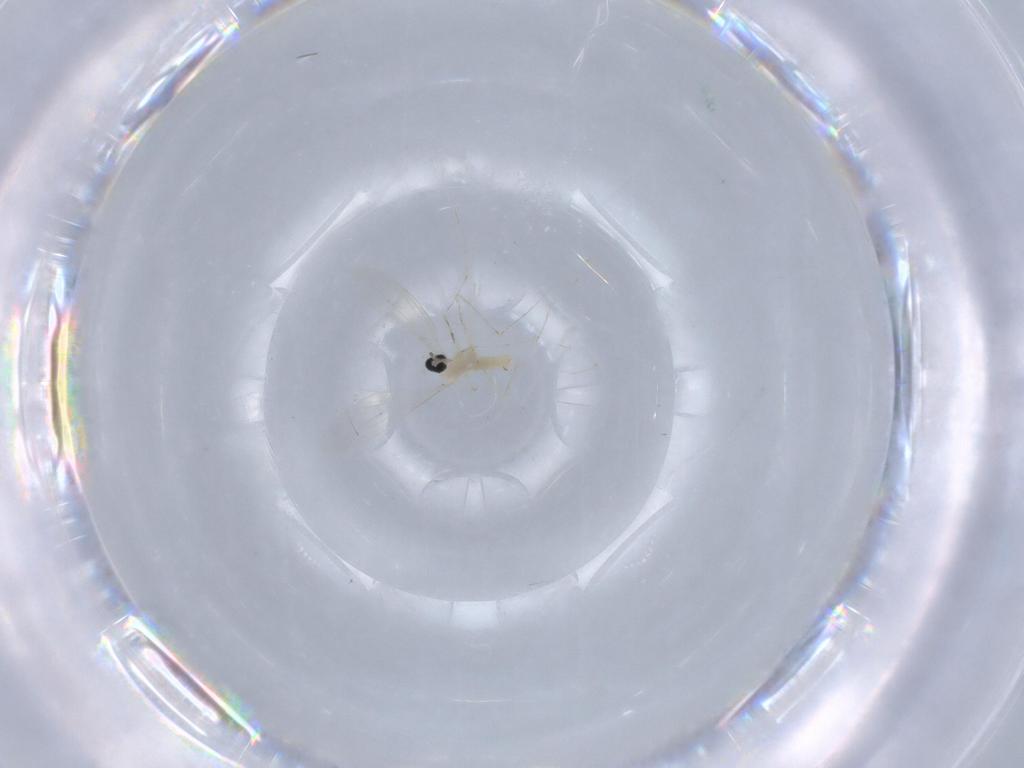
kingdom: Animalia
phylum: Arthropoda
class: Insecta
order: Diptera
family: Cecidomyiidae
